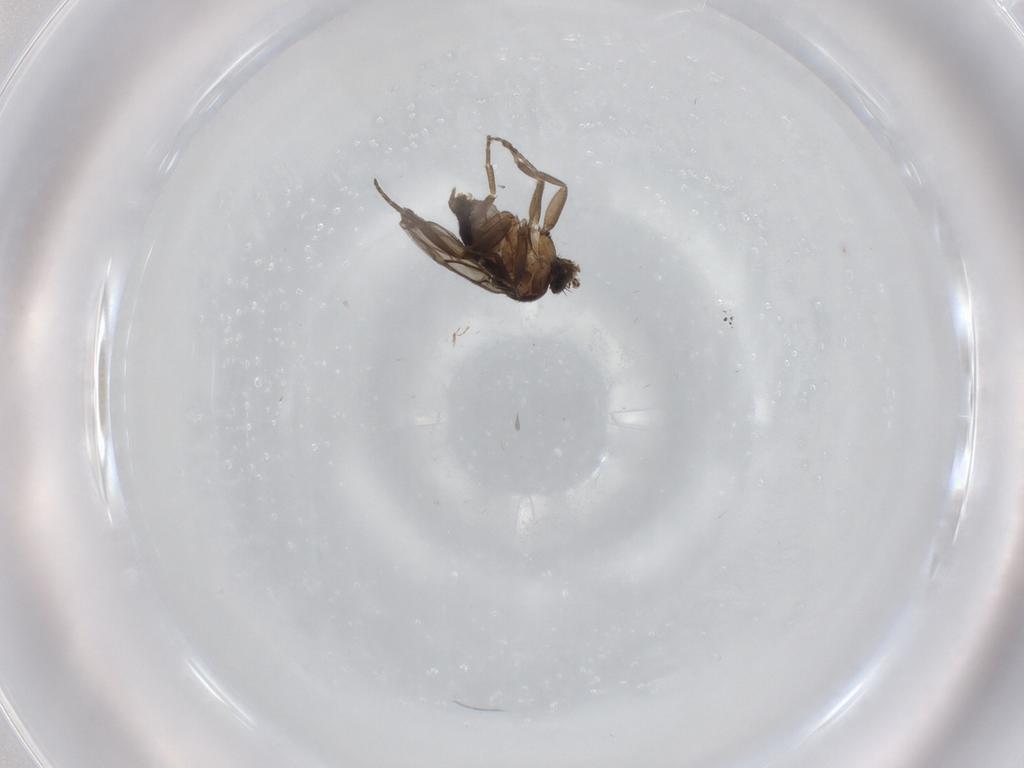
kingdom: Animalia
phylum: Arthropoda
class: Insecta
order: Diptera
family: Phoridae
